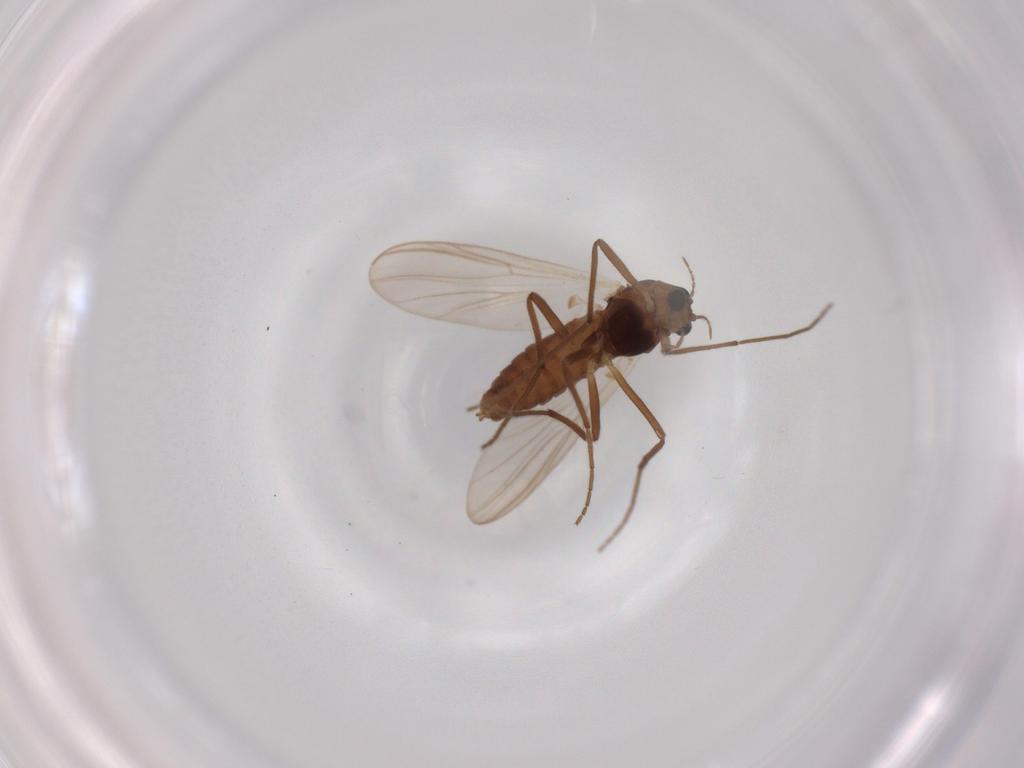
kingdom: Animalia
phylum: Arthropoda
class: Insecta
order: Diptera
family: Chironomidae
